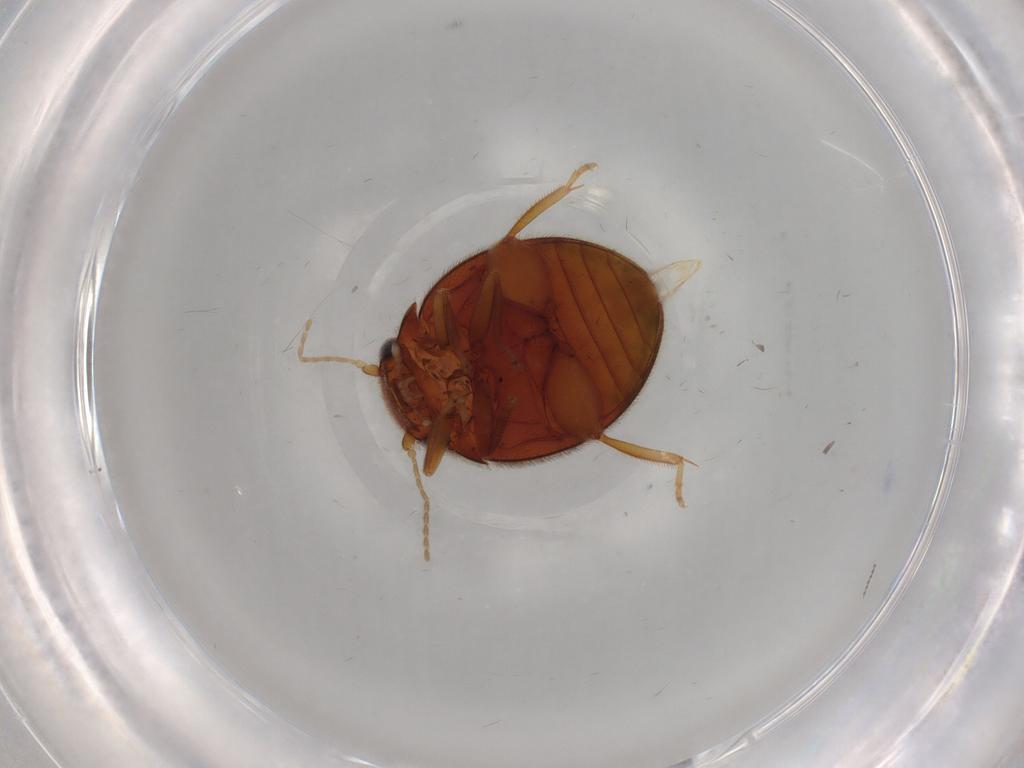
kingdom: Animalia
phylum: Arthropoda
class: Insecta
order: Coleoptera
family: Scirtidae
